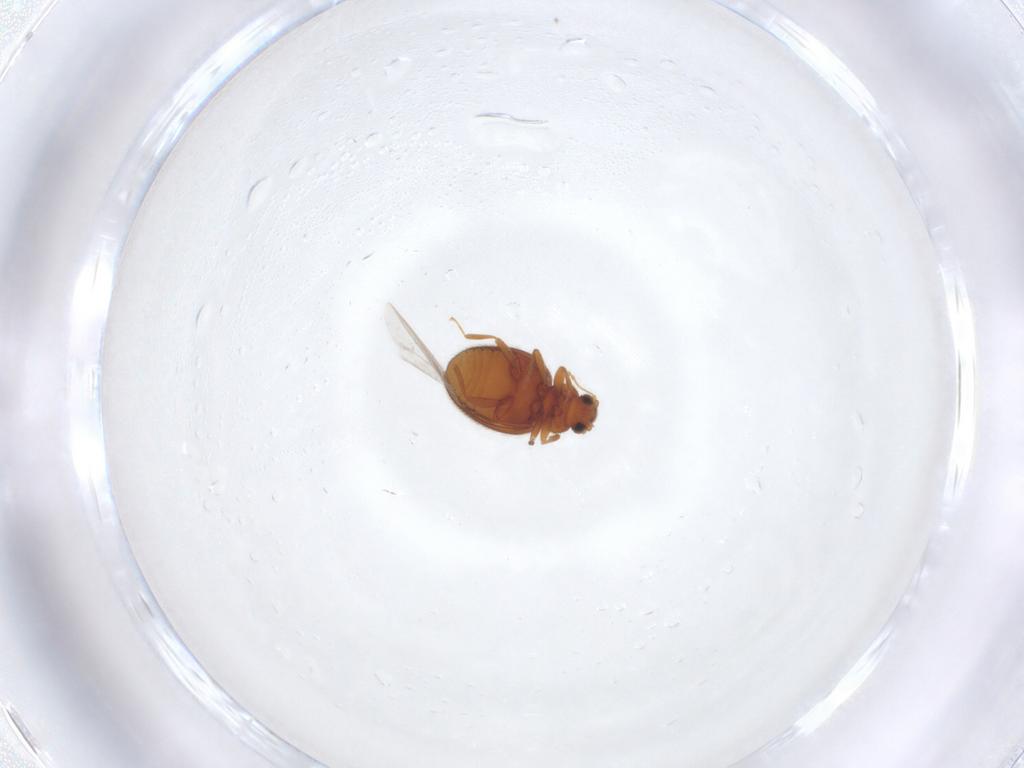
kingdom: Animalia
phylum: Arthropoda
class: Insecta
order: Coleoptera
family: Latridiidae
